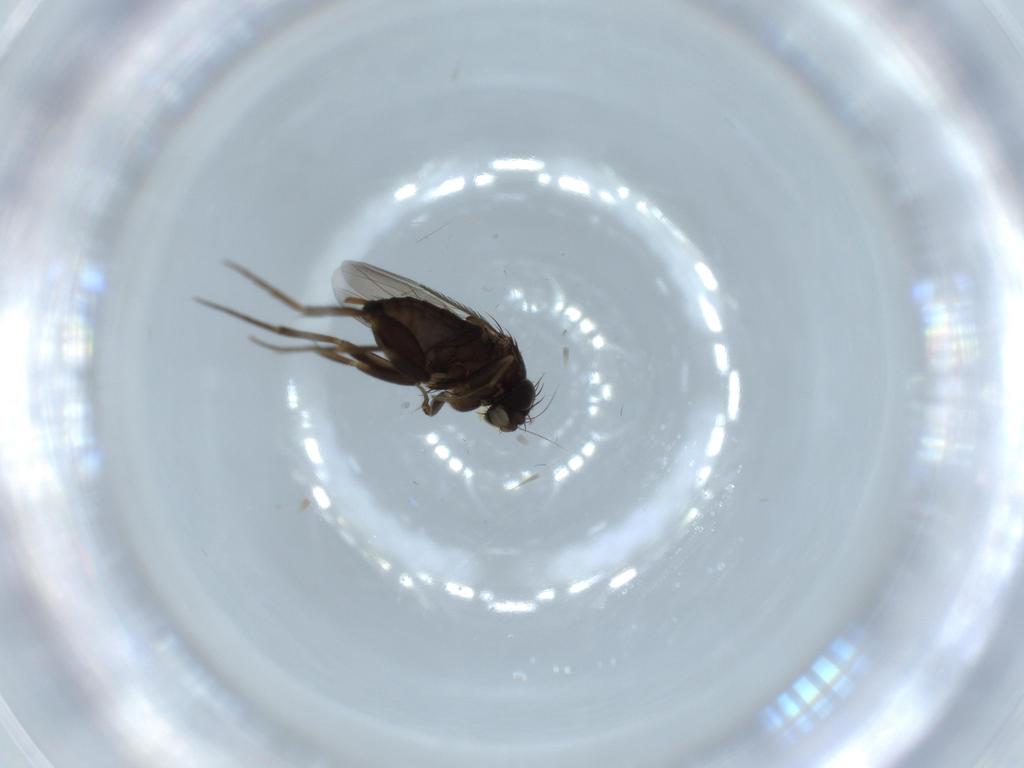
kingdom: Animalia
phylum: Arthropoda
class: Insecta
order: Diptera
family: Phoridae
